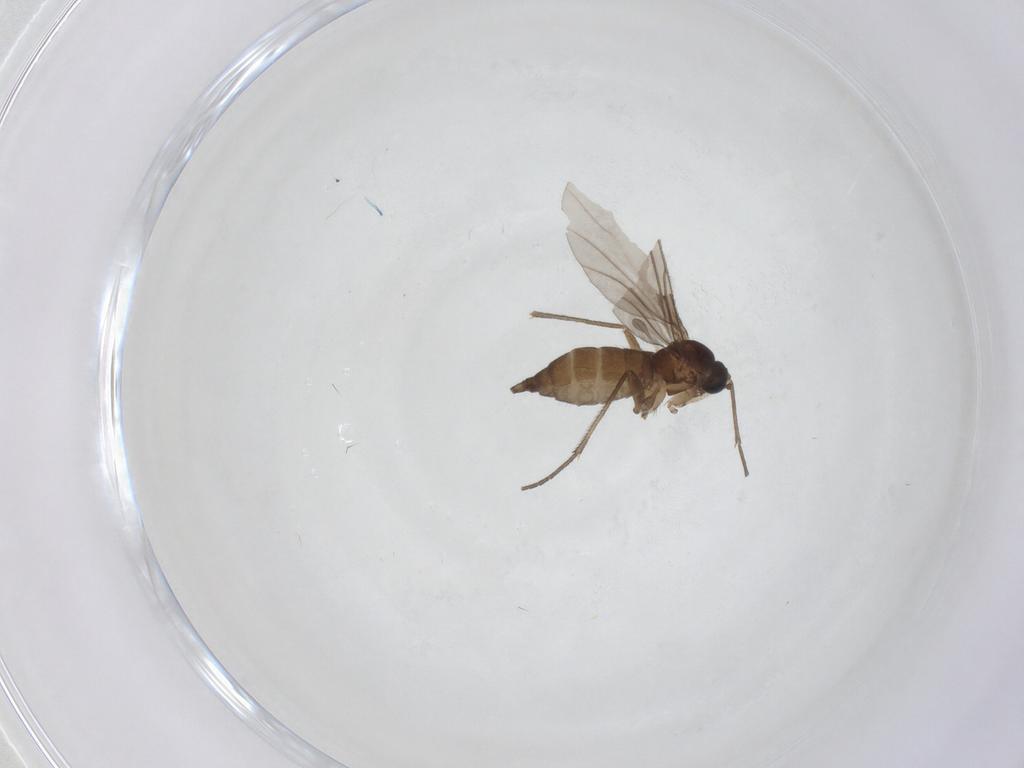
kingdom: Animalia
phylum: Arthropoda
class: Insecta
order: Diptera
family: Sciaridae
